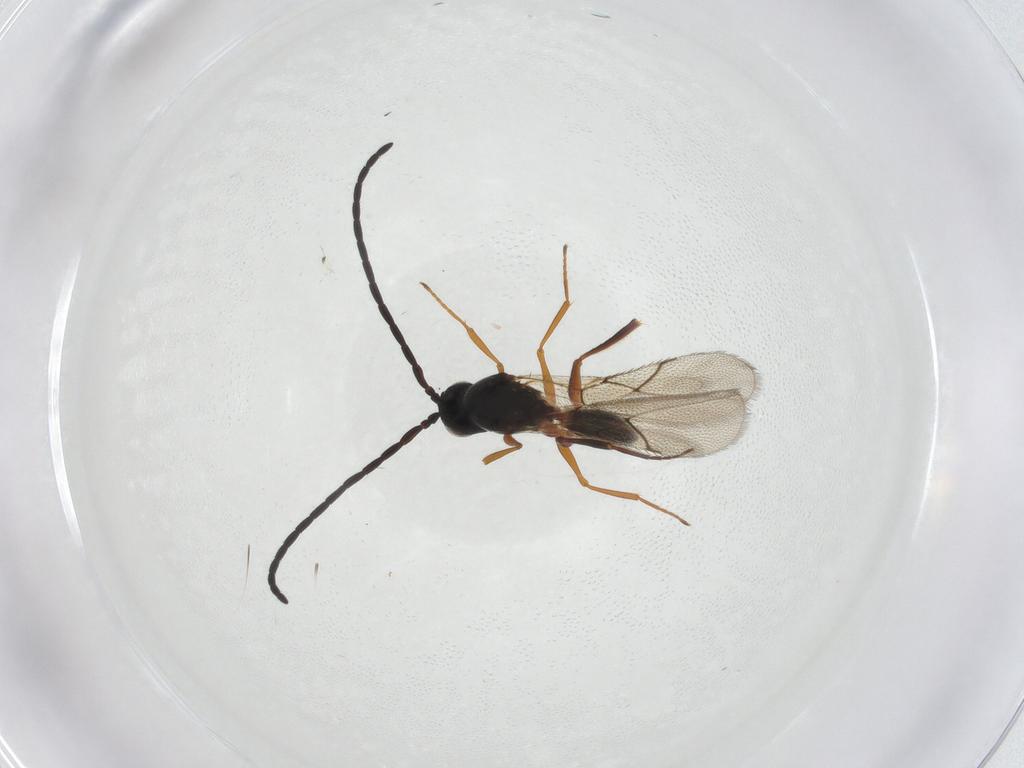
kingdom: Animalia
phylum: Arthropoda
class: Insecta
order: Hymenoptera
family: Figitidae
